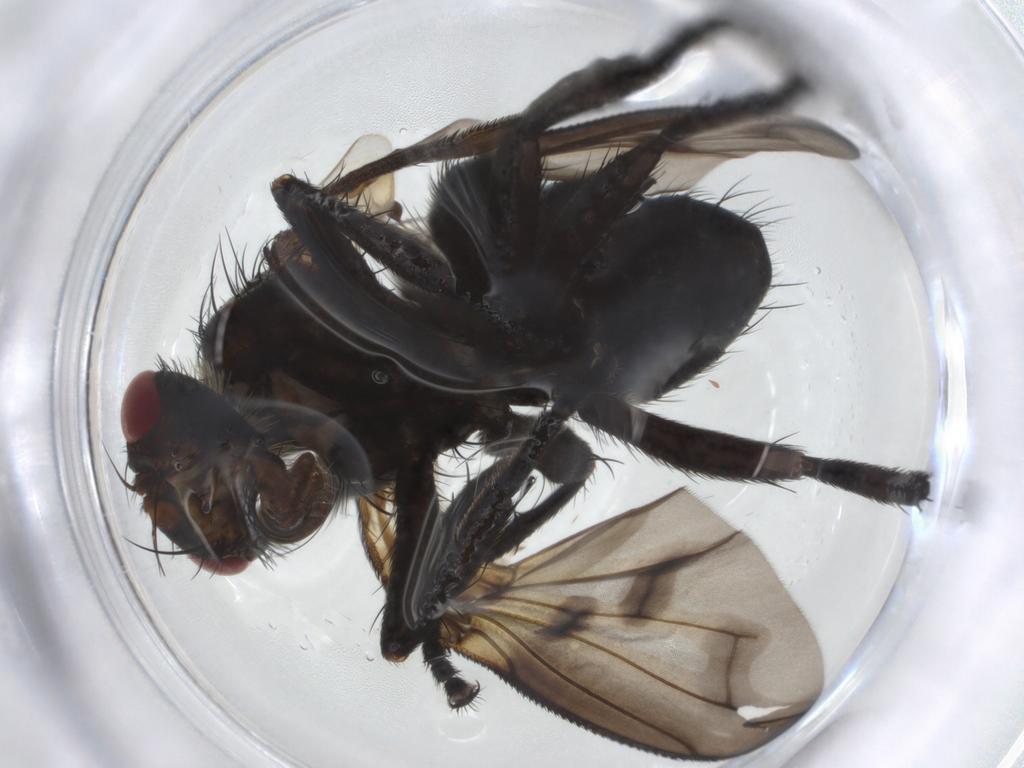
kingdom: Animalia
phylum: Arthropoda
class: Insecta
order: Diptera
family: Cecidomyiidae
